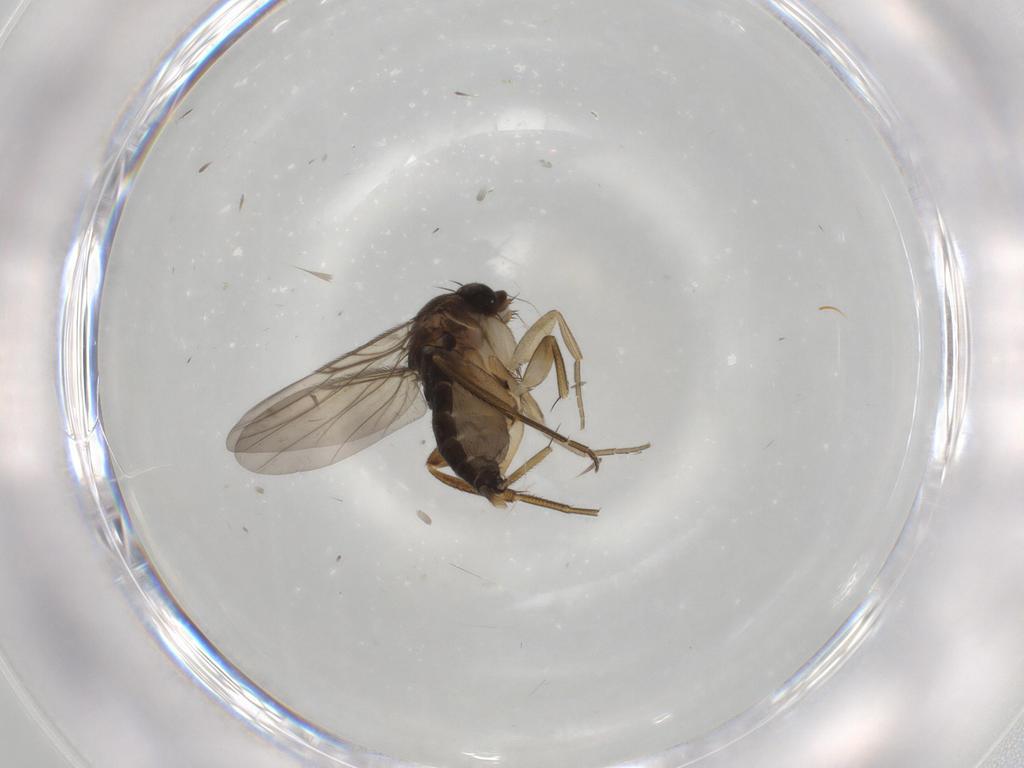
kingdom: Animalia
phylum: Arthropoda
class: Insecta
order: Diptera
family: Phoridae
